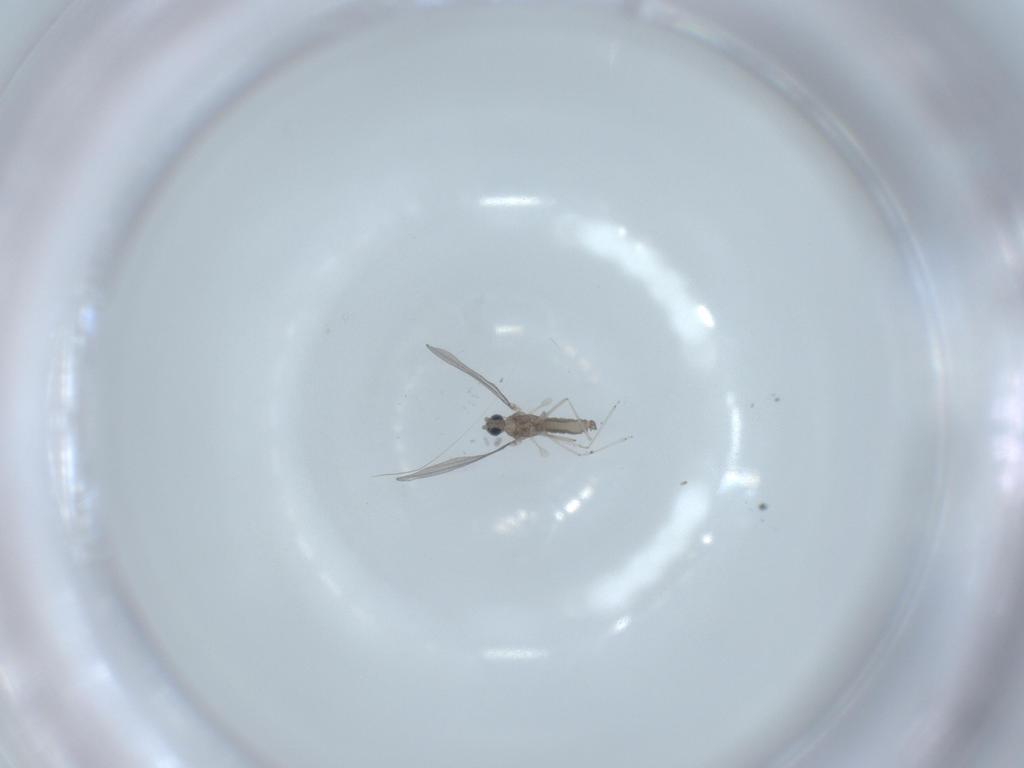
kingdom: Animalia
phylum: Arthropoda
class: Insecta
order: Diptera
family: Cecidomyiidae
